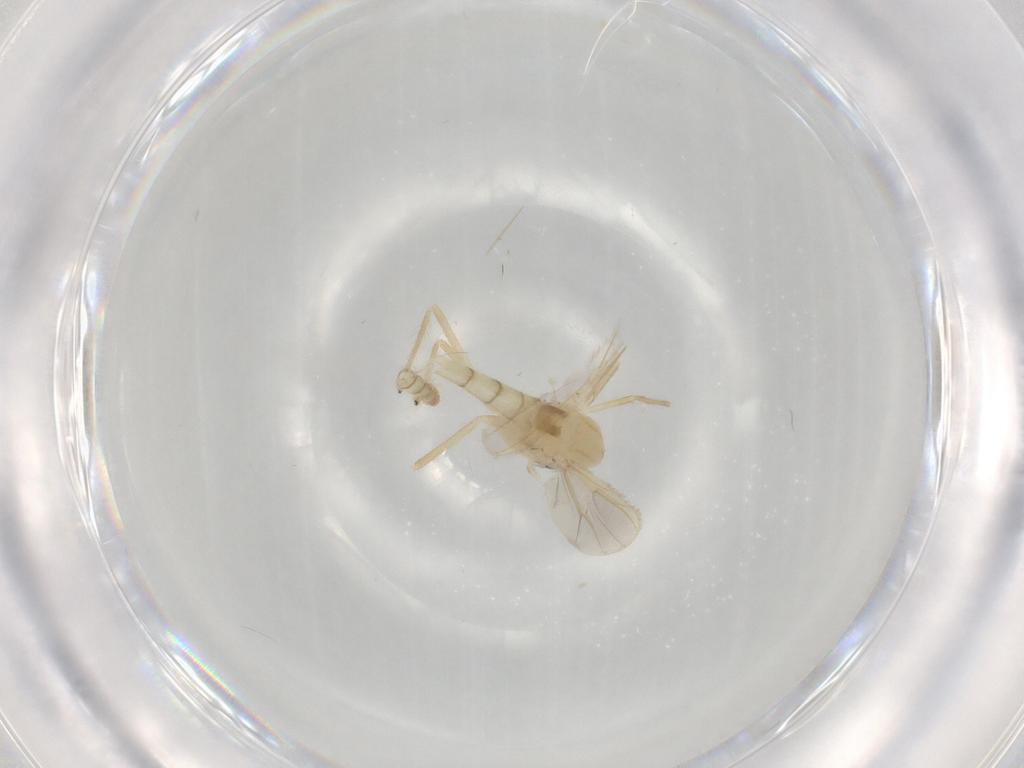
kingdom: Animalia
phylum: Arthropoda
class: Insecta
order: Diptera
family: Chironomidae
